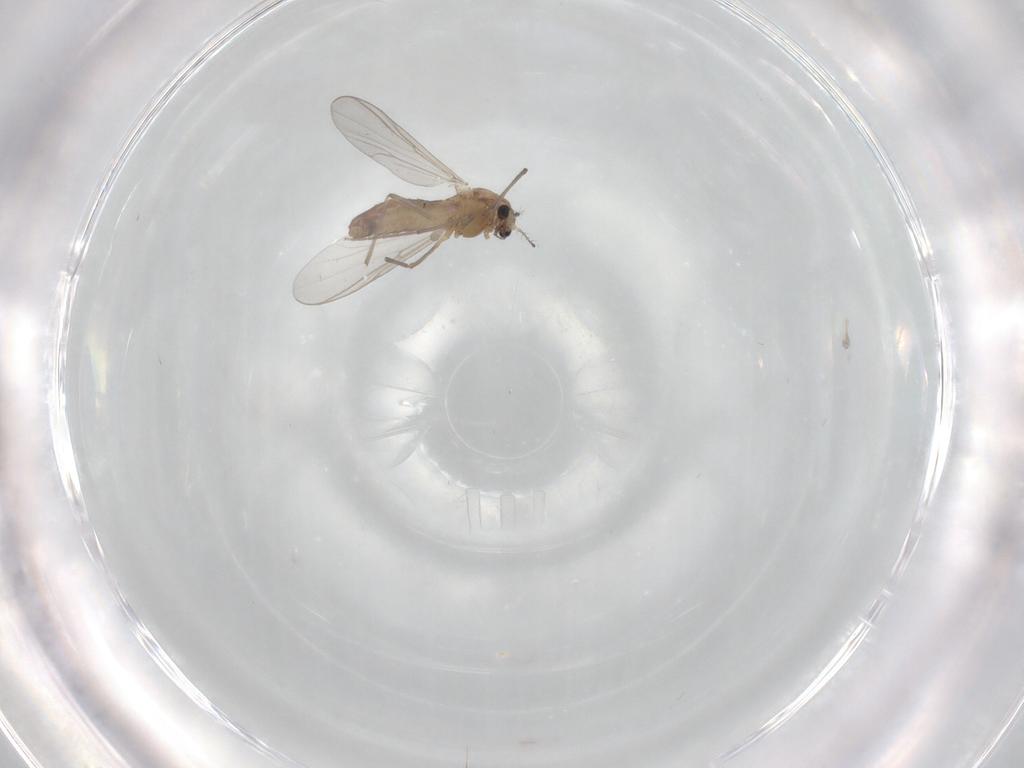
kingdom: Animalia
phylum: Arthropoda
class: Insecta
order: Diptera
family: Chironomidae
